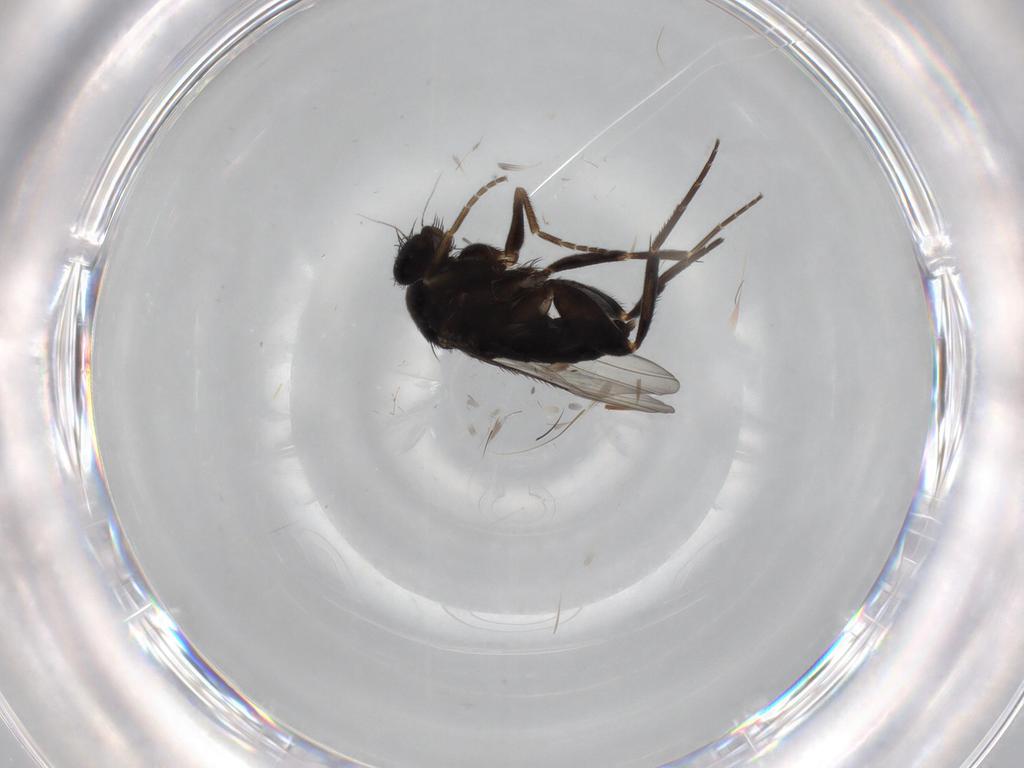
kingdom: Animalia
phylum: Arthropoda
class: Insecta
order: Diptera
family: Phoridae
